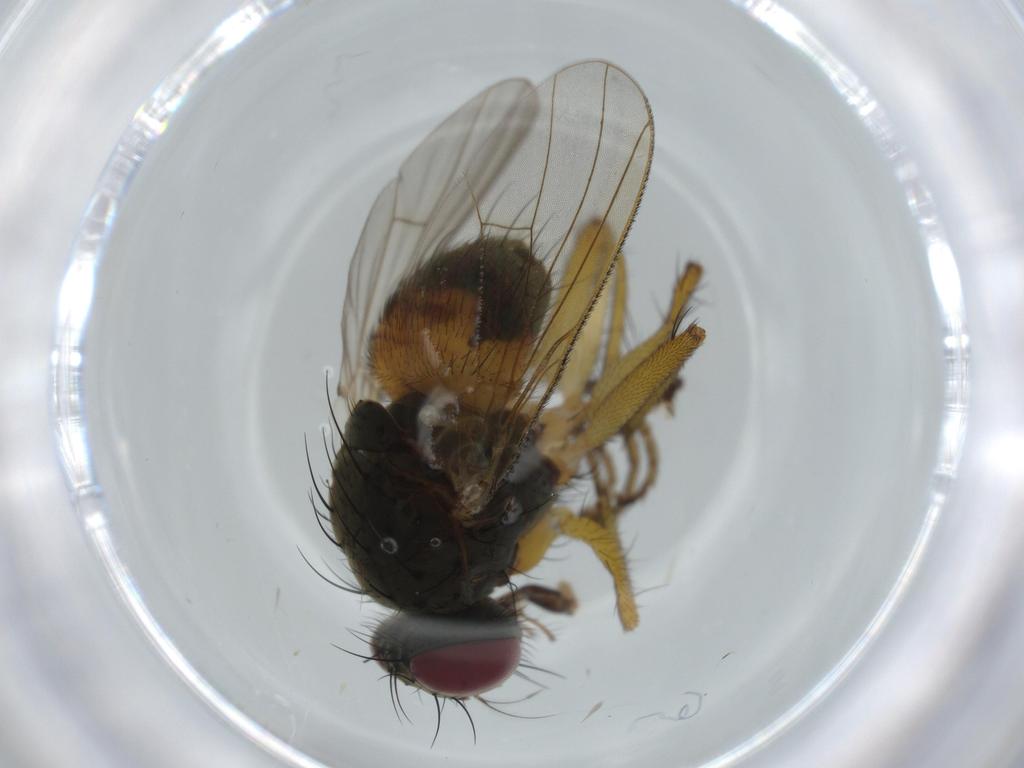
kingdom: Animalia
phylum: Arthropoda
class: Insecta
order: Diptera
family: Muscidae
